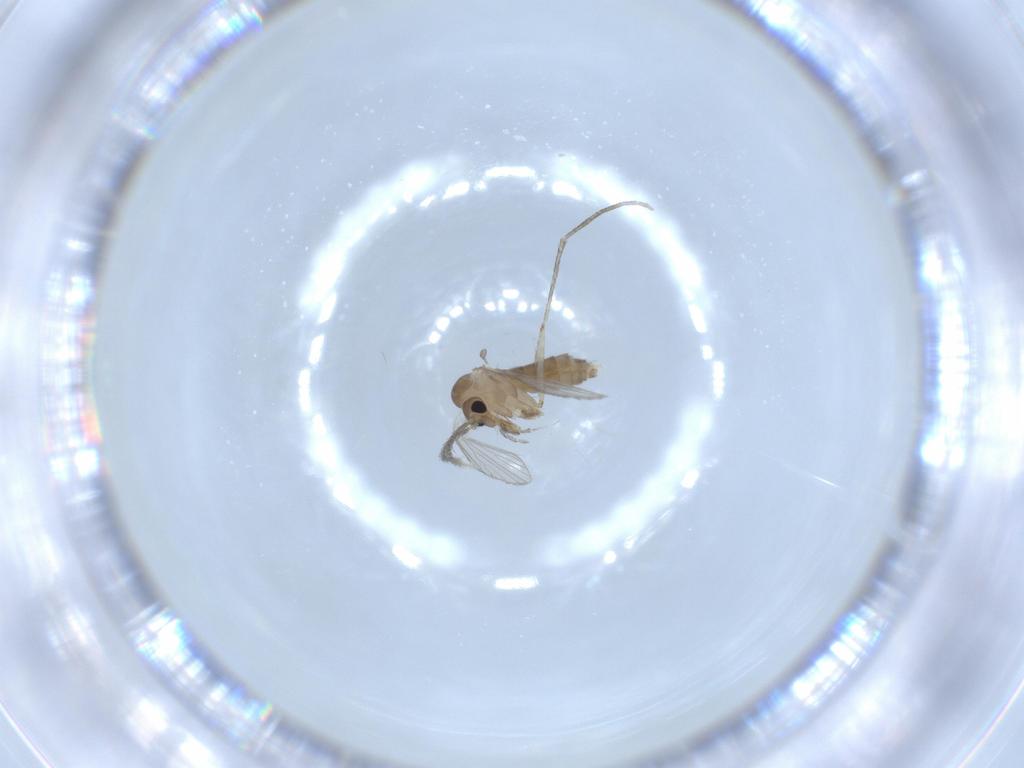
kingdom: Animalia
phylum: Arthropoda
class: Insecta
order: Diptera
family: Psychodidae
